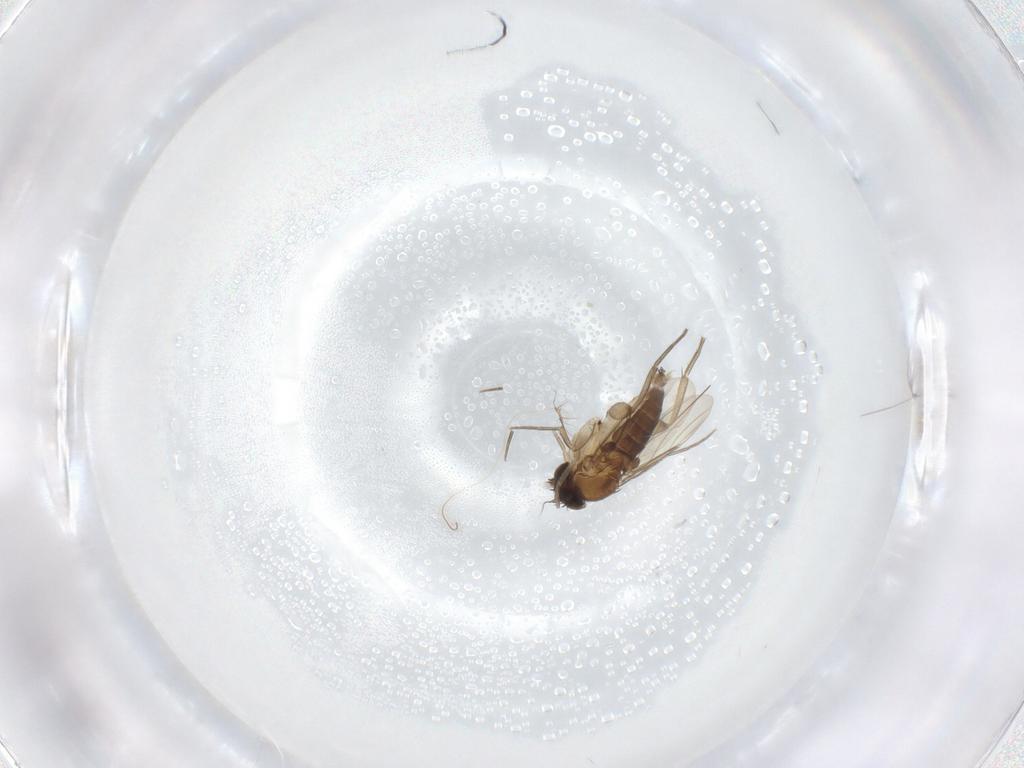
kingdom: Animalia
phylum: Arthropoda
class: Insecta
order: Diptera
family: Phoridae
